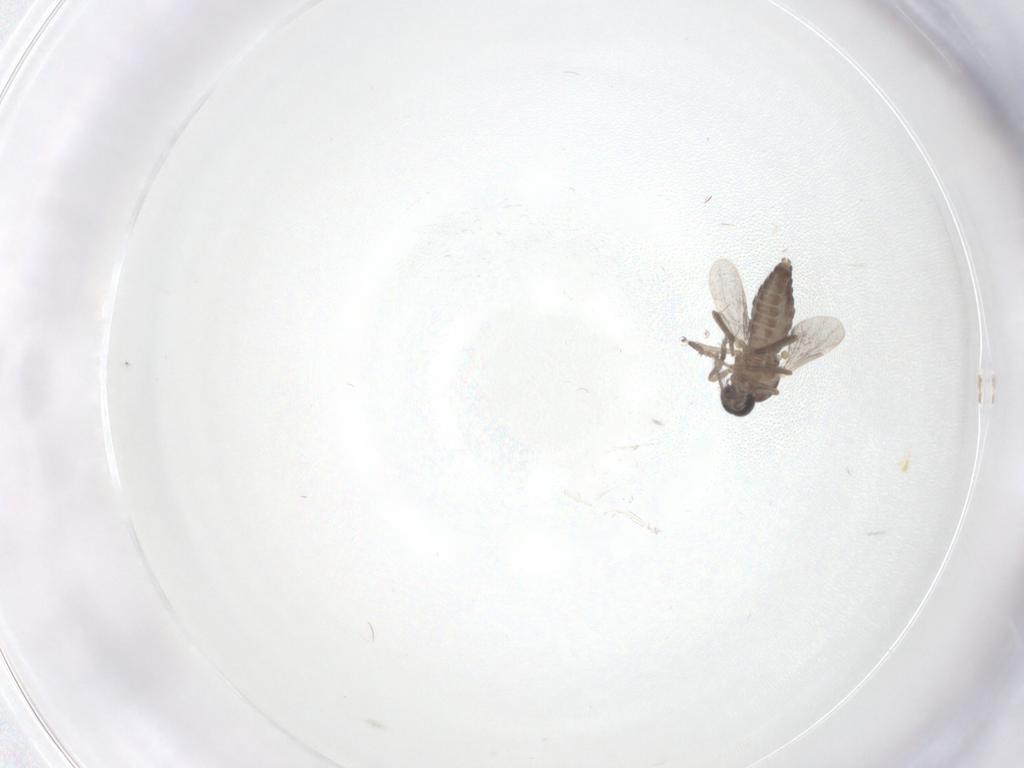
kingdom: Animalia
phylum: Arthropoda
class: Insecta
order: Diptera
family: Ceratopogonidae
